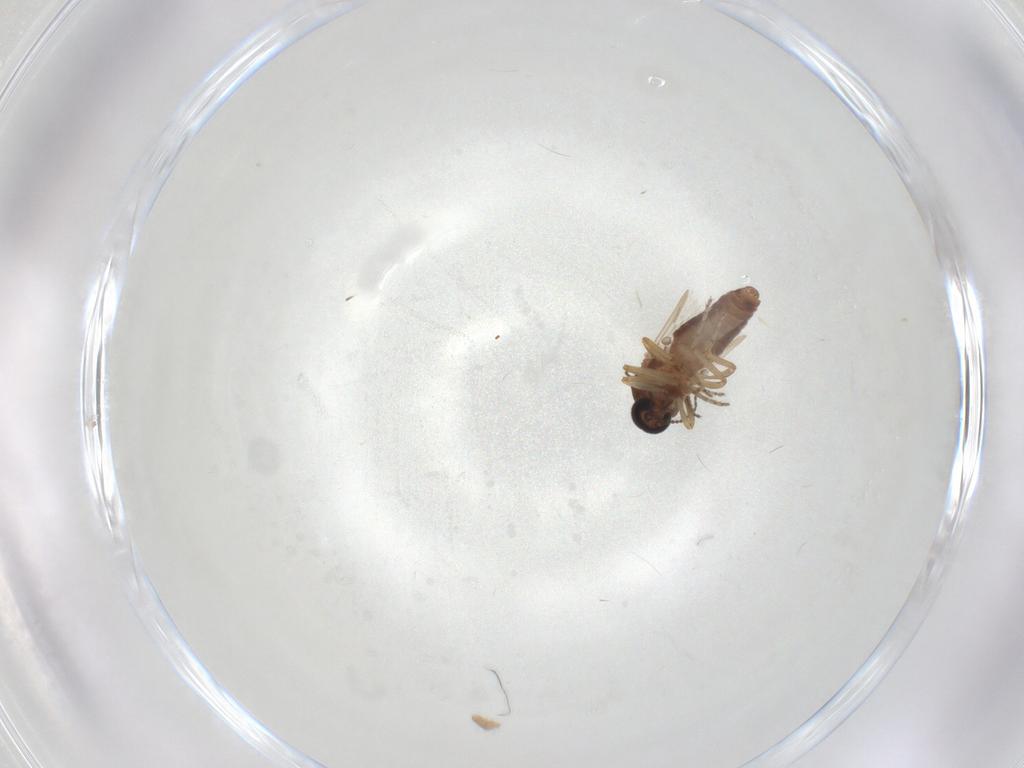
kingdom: Animalia
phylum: Arthropoda
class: Insecta
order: Diptera
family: Ceratopogonidae
